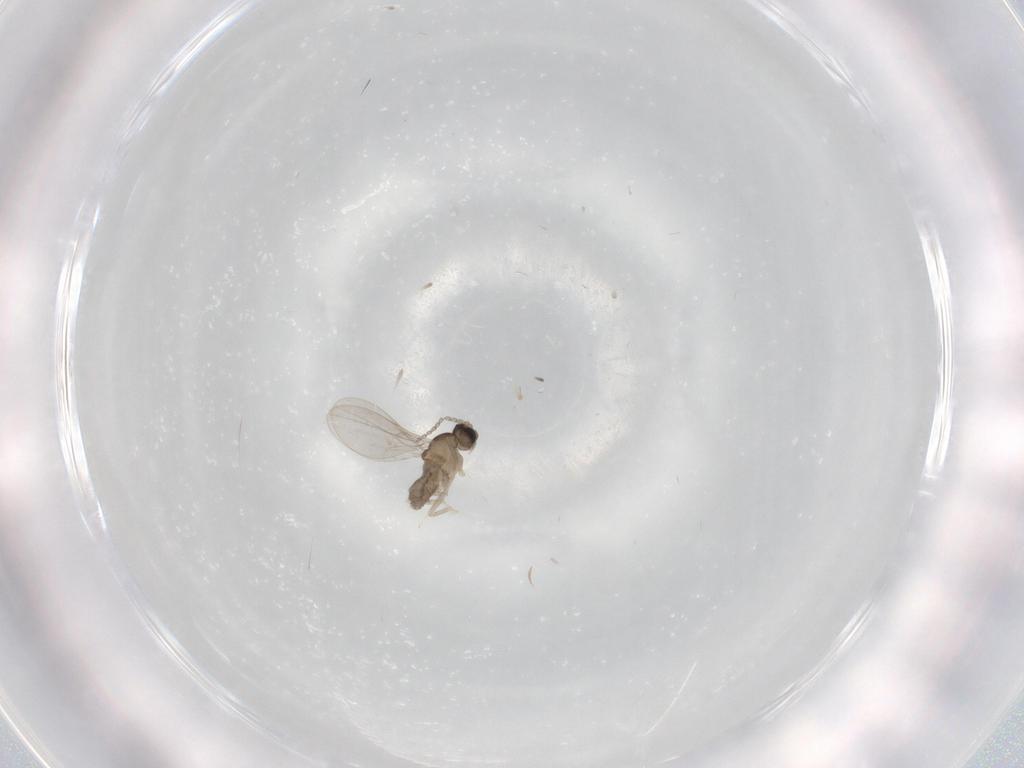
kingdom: Animalia
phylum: Arthropoda
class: Insecta
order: Diptera
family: Cecidomyiidae
